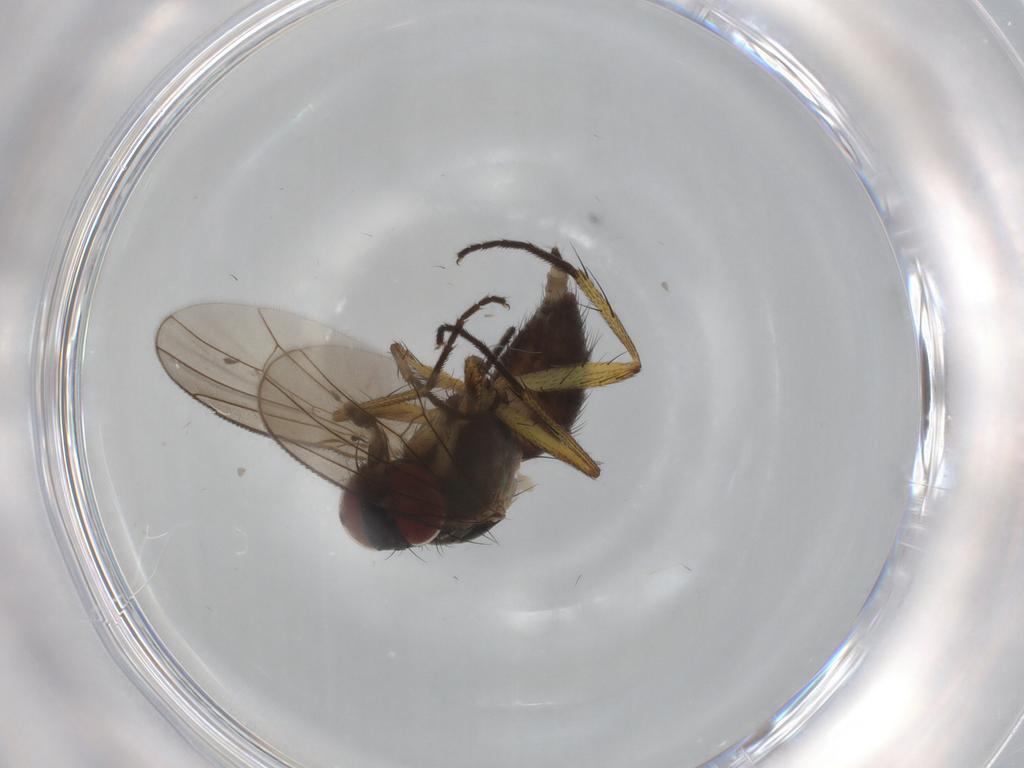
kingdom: Animalia
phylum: Arthropoda
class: Insecta
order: Diptera
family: Muscidae
